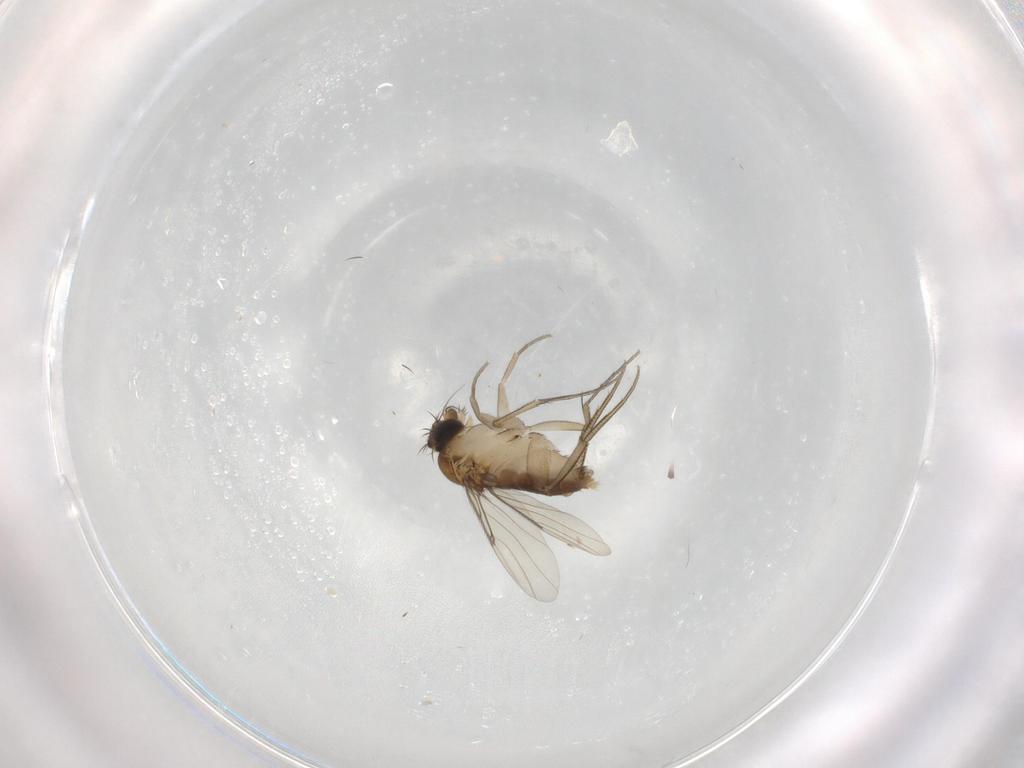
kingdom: Animalia
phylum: Arthropoda
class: Insecta
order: Diptera
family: Phoridae
